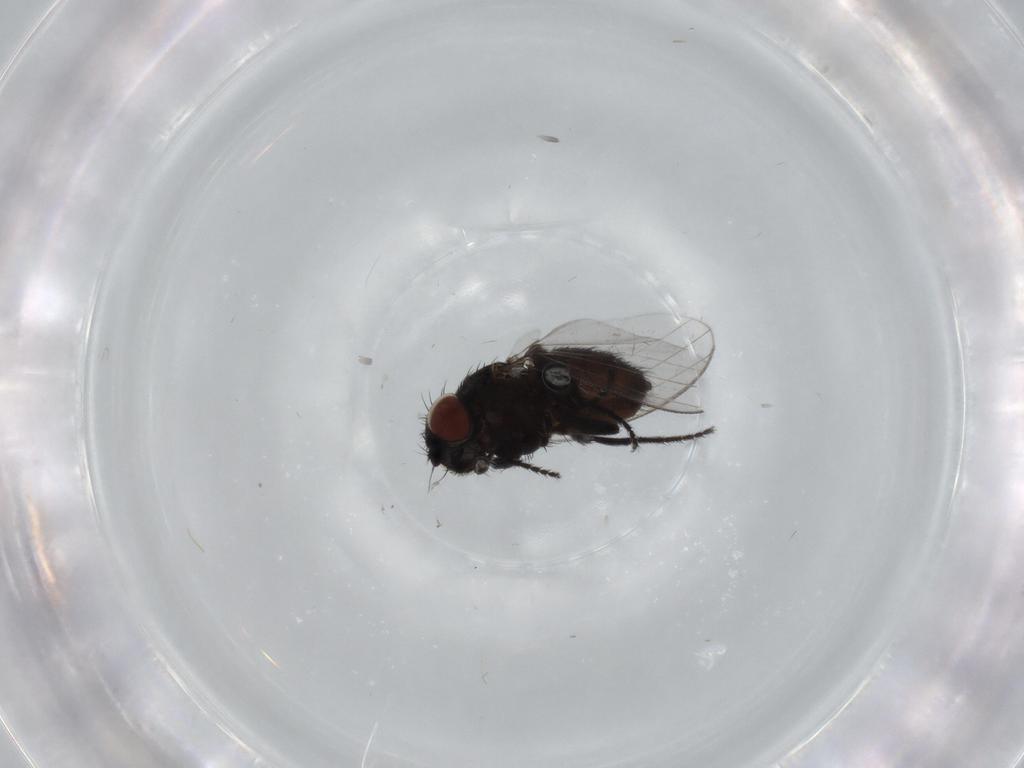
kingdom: Animalia
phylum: Arthropoda
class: Insecta
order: Diptera
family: Milichiidae
